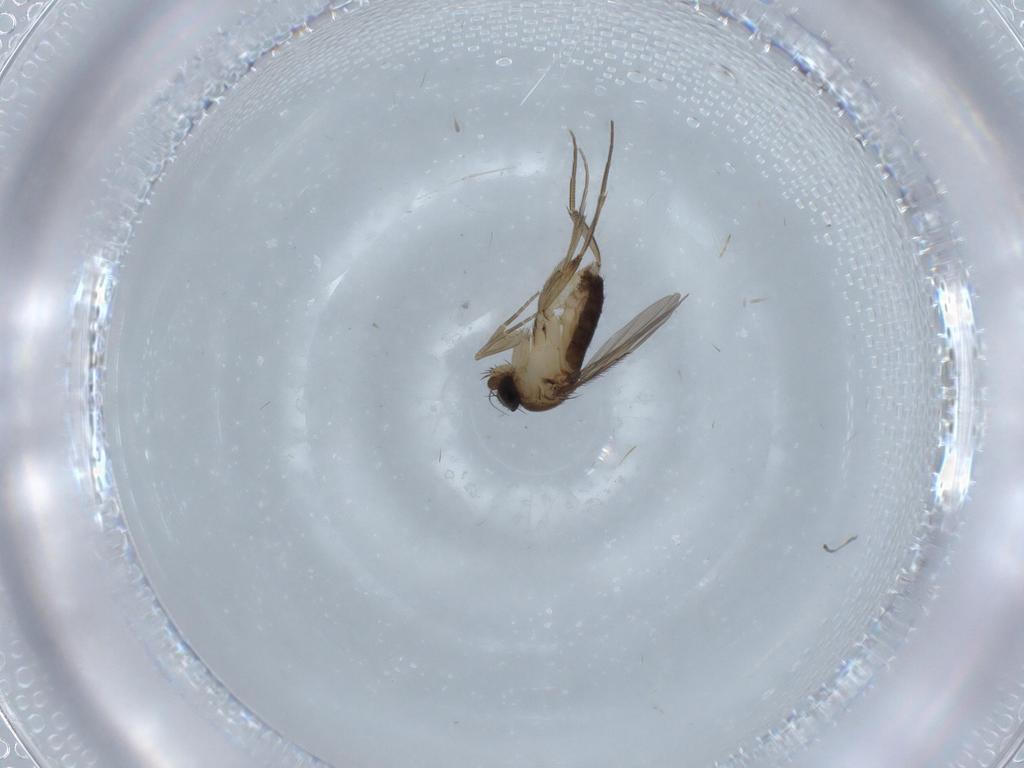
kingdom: Animalia
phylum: Arthropoda
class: Insecta
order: Diptera
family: Phoridae
